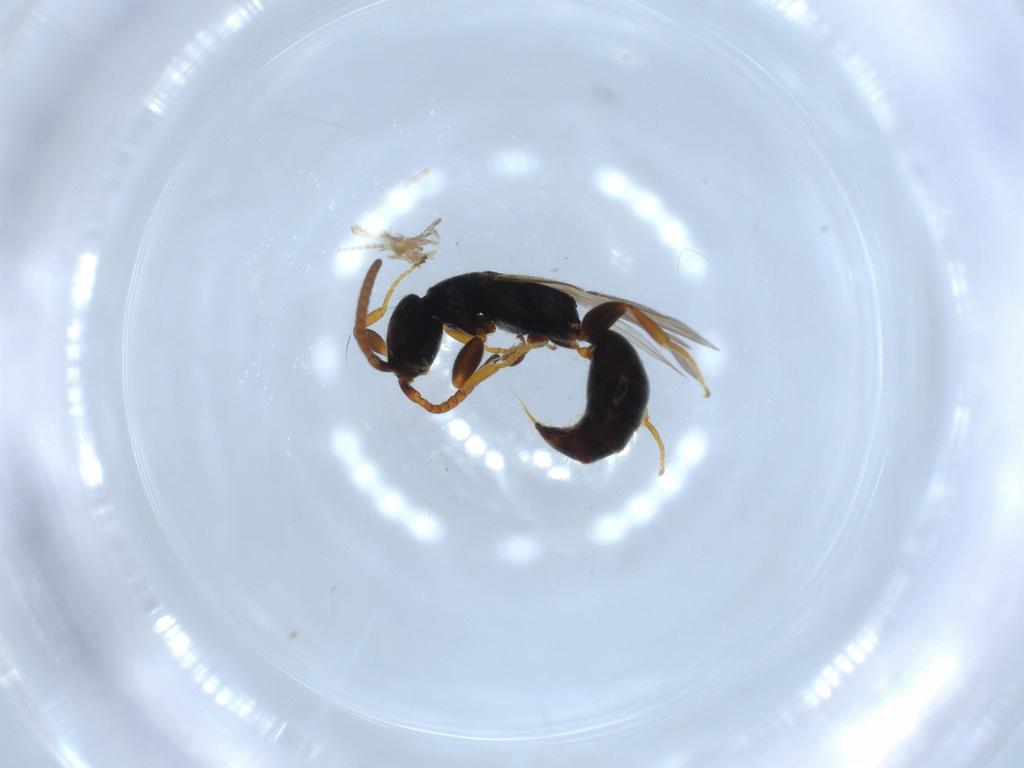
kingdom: Animalia
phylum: Arthropoda
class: Insecta
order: Hymenoptera
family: Bethylidae
